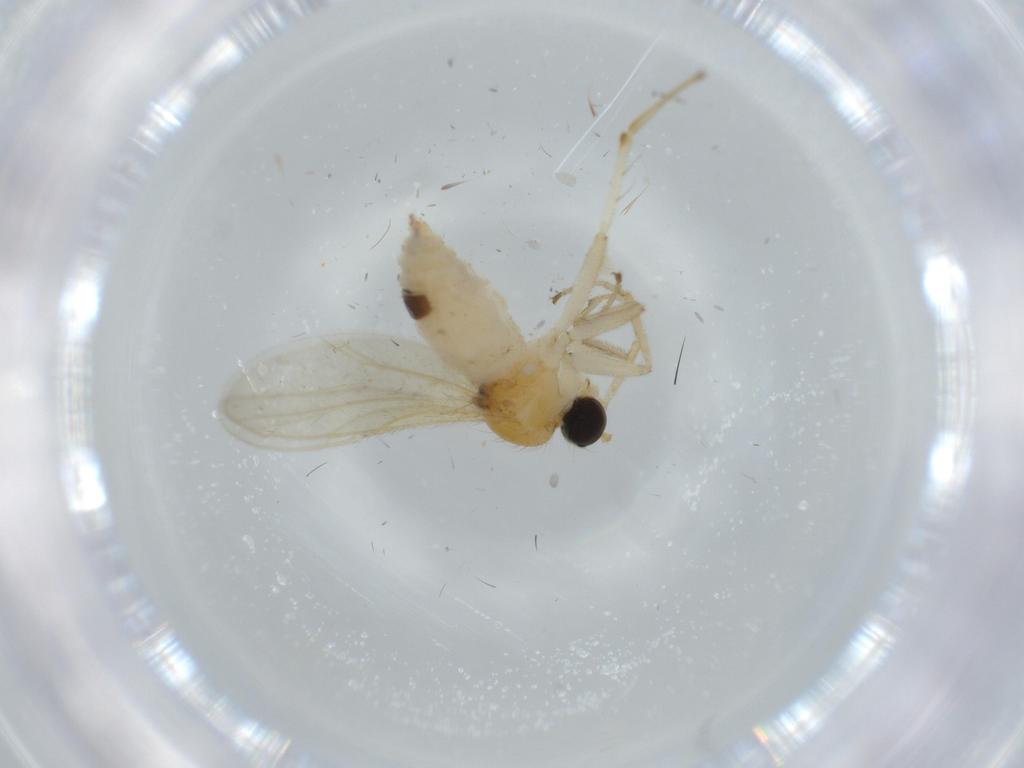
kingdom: Animalia
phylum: Arthropoda
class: Insecta
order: Diptera
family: Hybotidae
